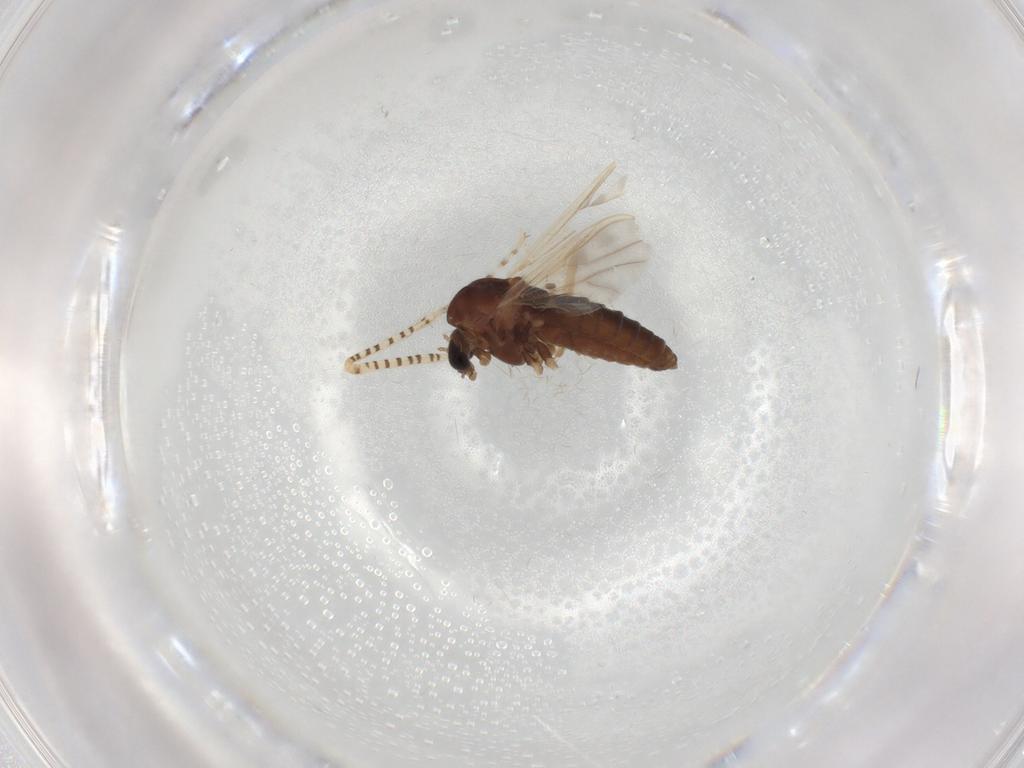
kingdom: Animalia
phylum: Arthropoda
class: Insecta
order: Diptera
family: Chironomidae
